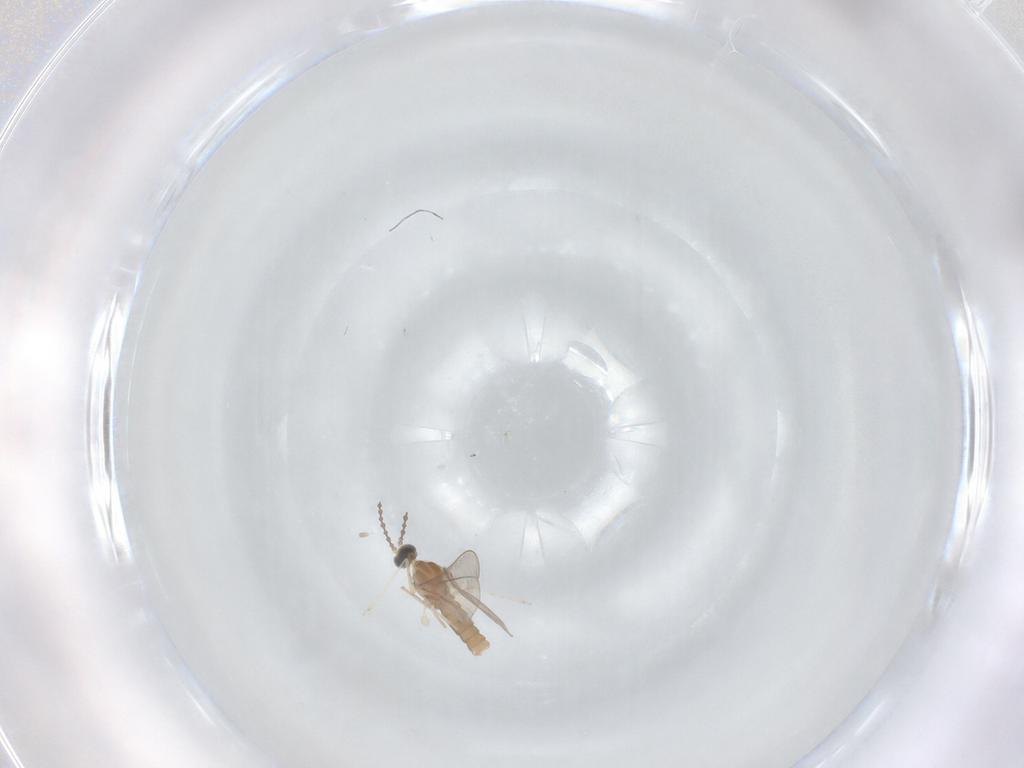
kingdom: Animalia
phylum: Arthropoda
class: Insecta
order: Diptera
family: Cecidomyiidae
